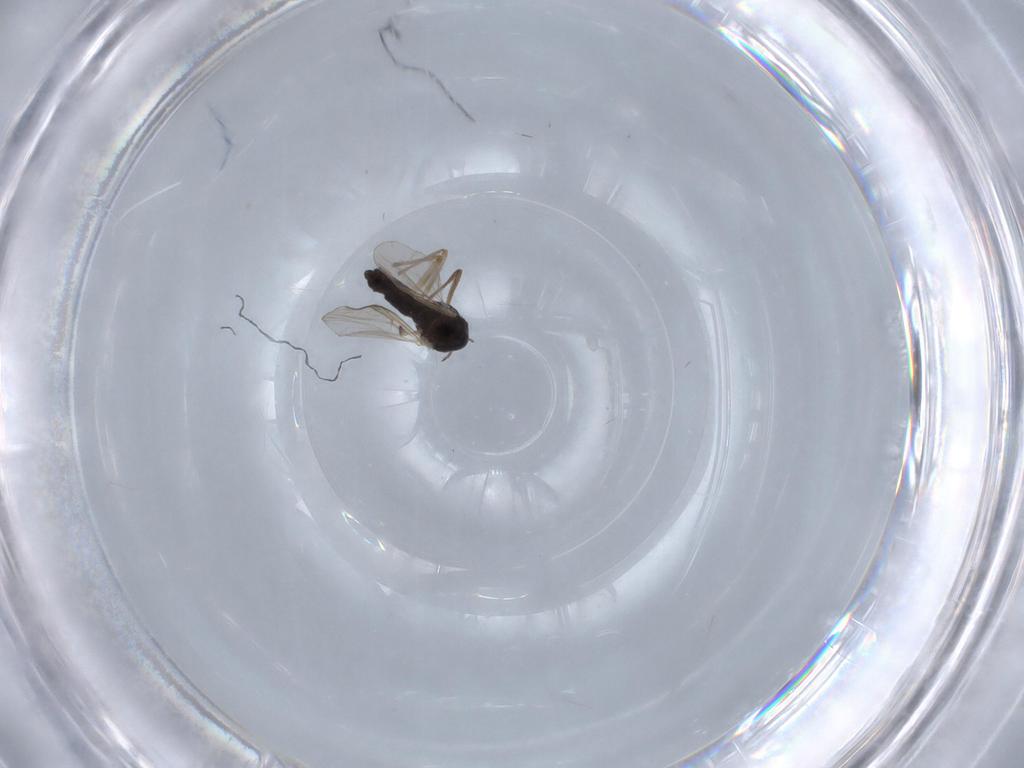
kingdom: Animalia
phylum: Arthropoda
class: Insecta
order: Diptera
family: Chironomidae
